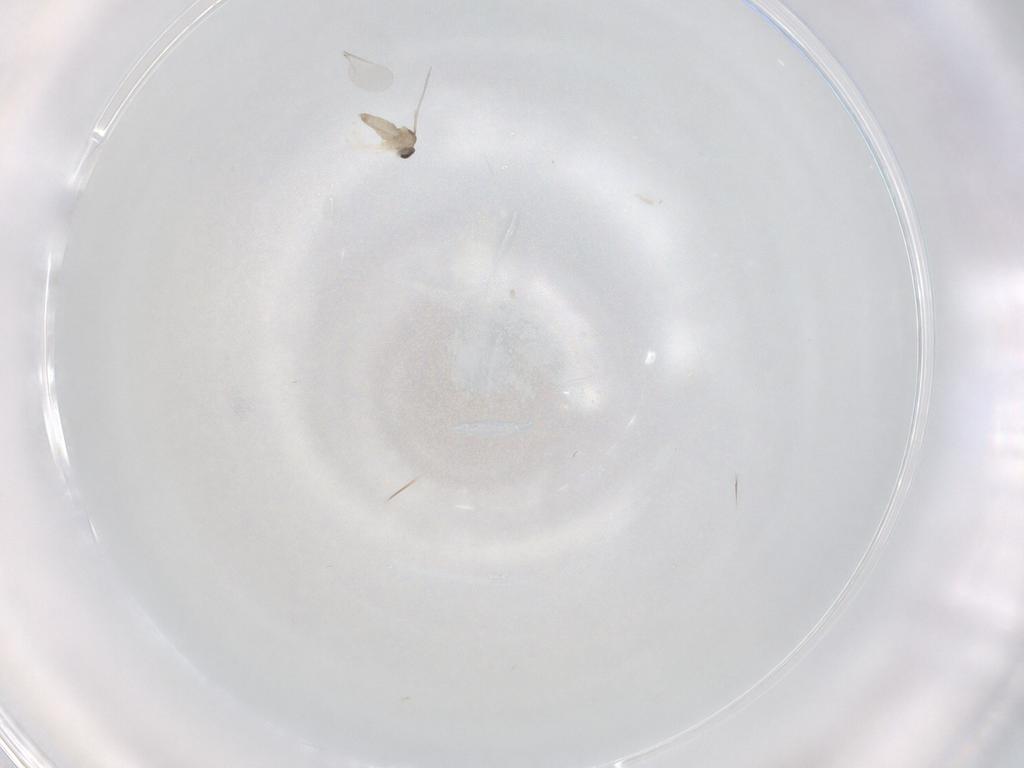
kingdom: Animalia
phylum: Arthropoda
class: Insecta
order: Diptera
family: Cecidomyiidae
